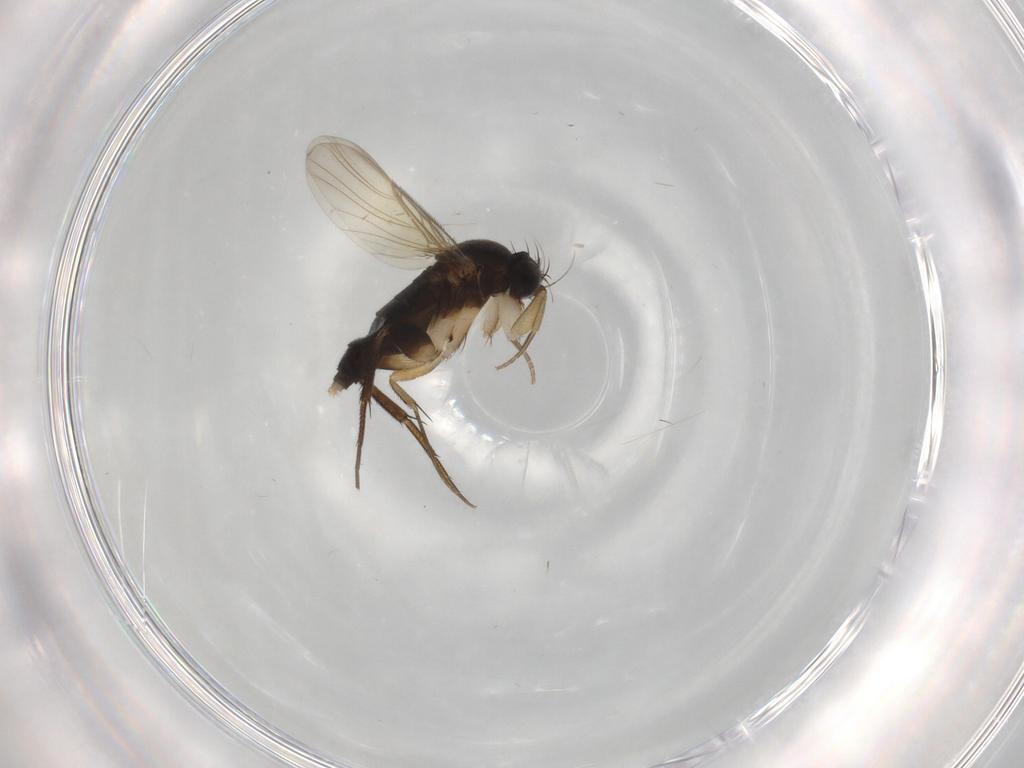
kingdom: Animalia
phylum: Arthropoda
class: Insecta
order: Diptera
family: Phoridae
